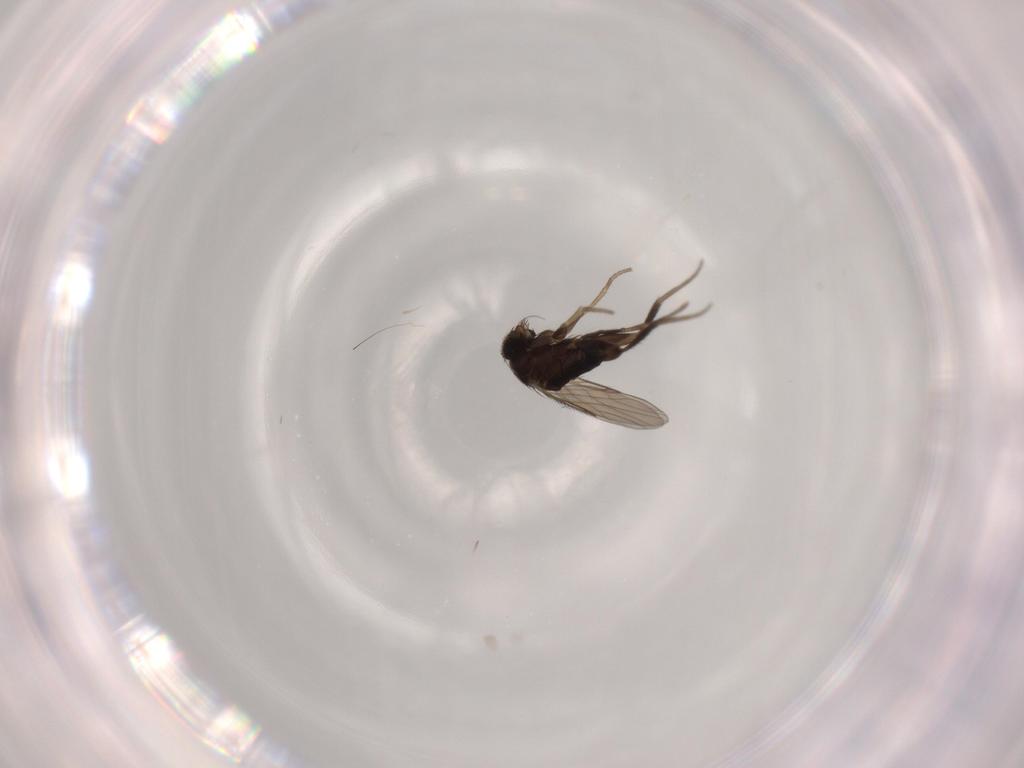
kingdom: Animalia
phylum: Arthropoda
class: Insecta
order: Diptera
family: Phoridae
